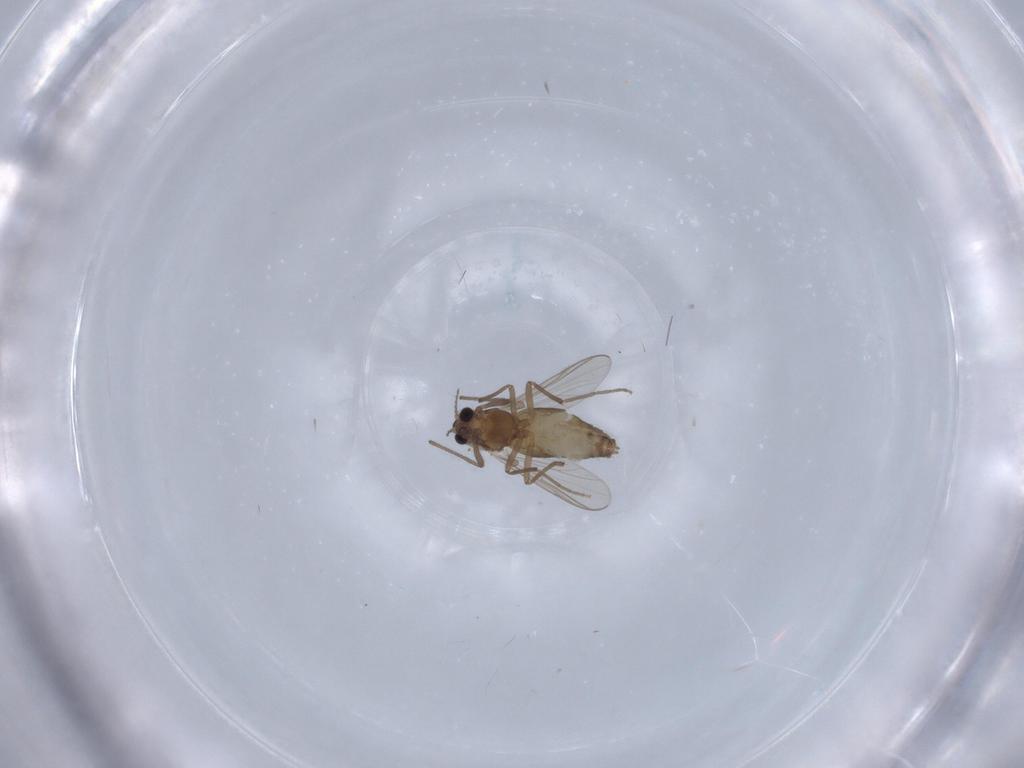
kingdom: Animalia
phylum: Arthropoda
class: Insecta
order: Diptera
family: Chironomidae
